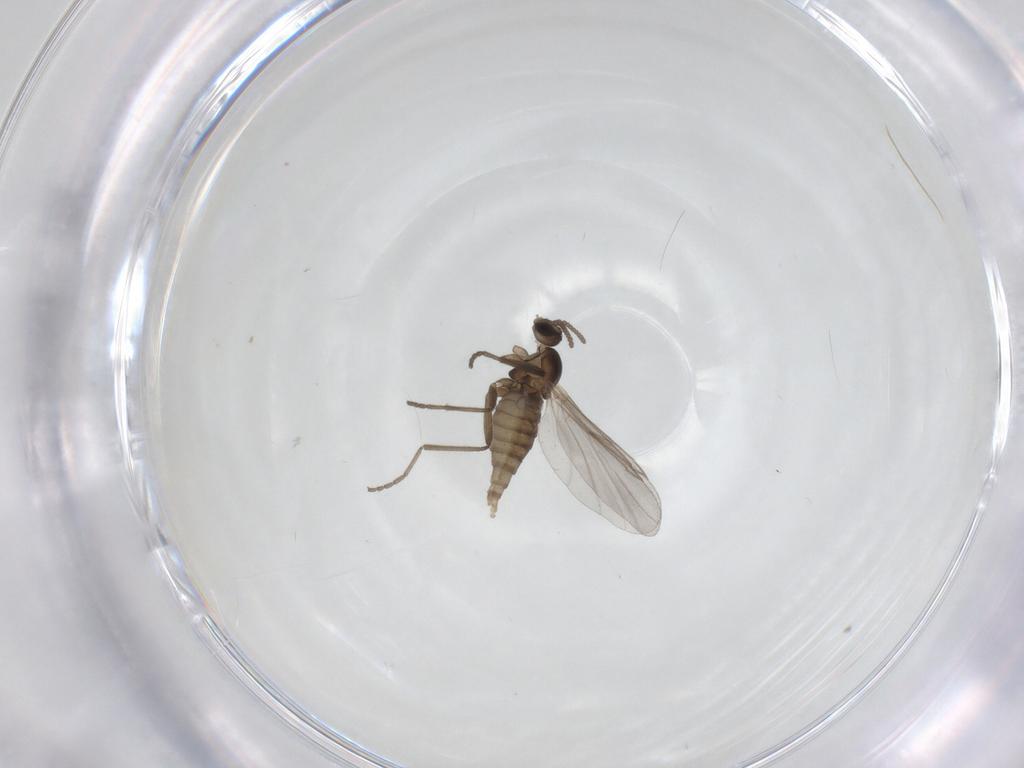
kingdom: Animalia
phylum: Arthropoda
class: Insecta
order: Diptera
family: Cecidomyiidae
